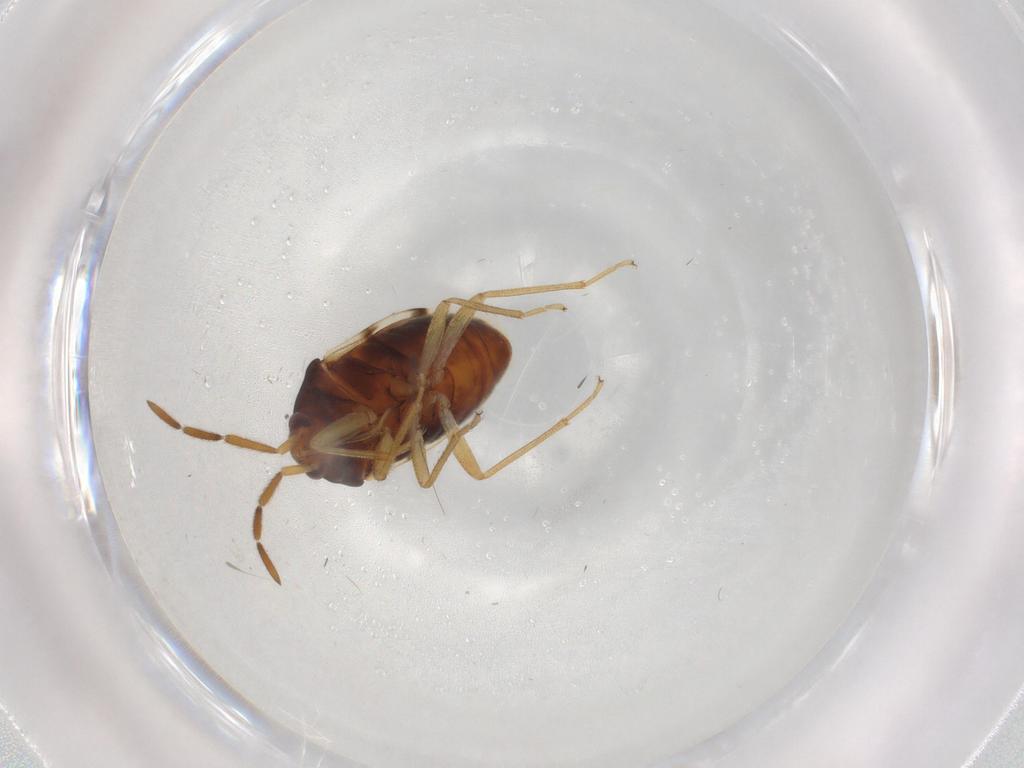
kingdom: Animalia
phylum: Arthropoda
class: Insecta
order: Hemiptera
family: Rhyparochromidae
